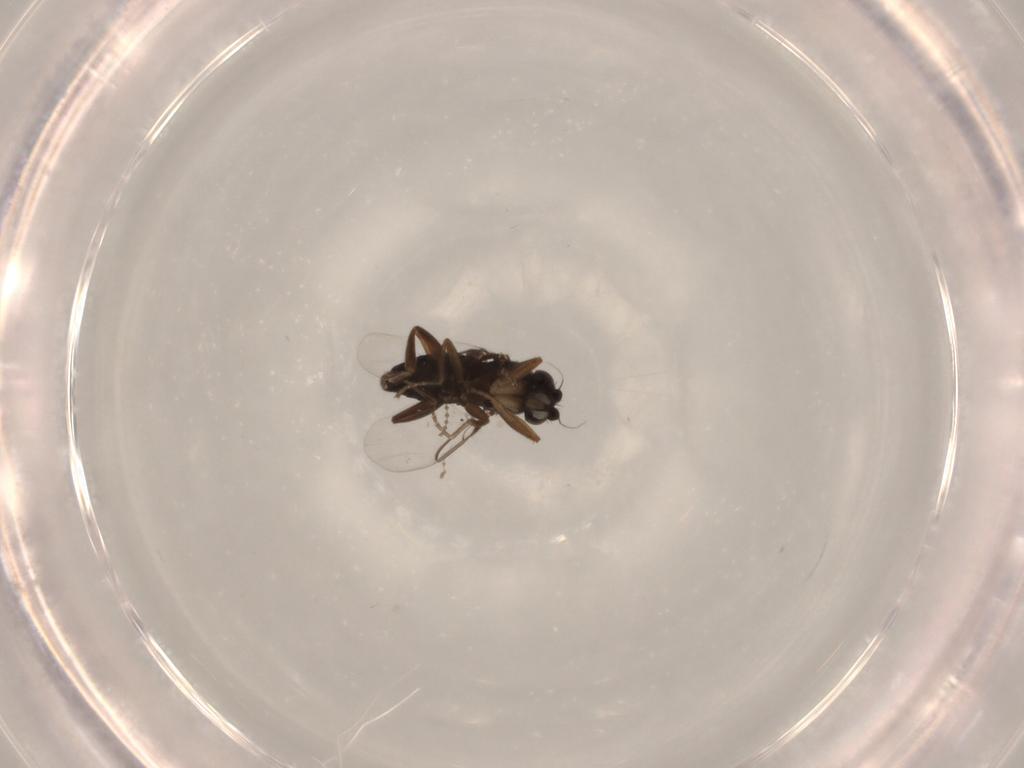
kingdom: Animalia
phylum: Arthropoda
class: Insecta
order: Diptera
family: Cecidomyiidae
